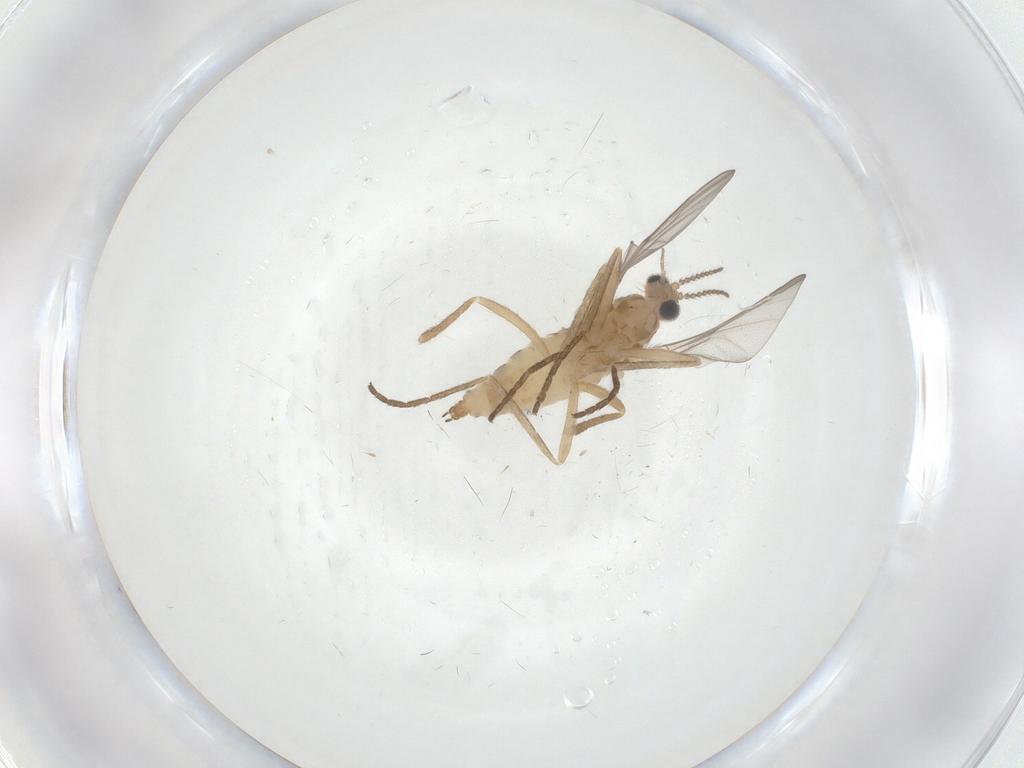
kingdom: Animalia
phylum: Arthropoda
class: Insecta
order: Diptera
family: Cecidomyiidae
